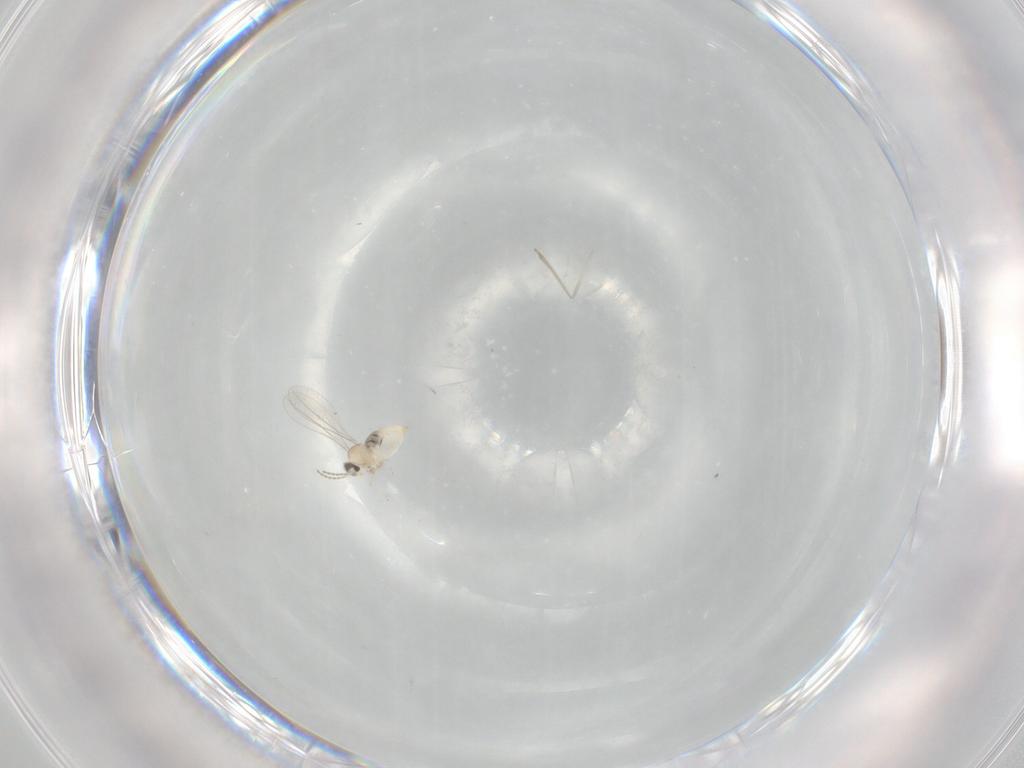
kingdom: Animalia
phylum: Arthropoda
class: Insecta
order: Diptera
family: Cecidomyiidae
